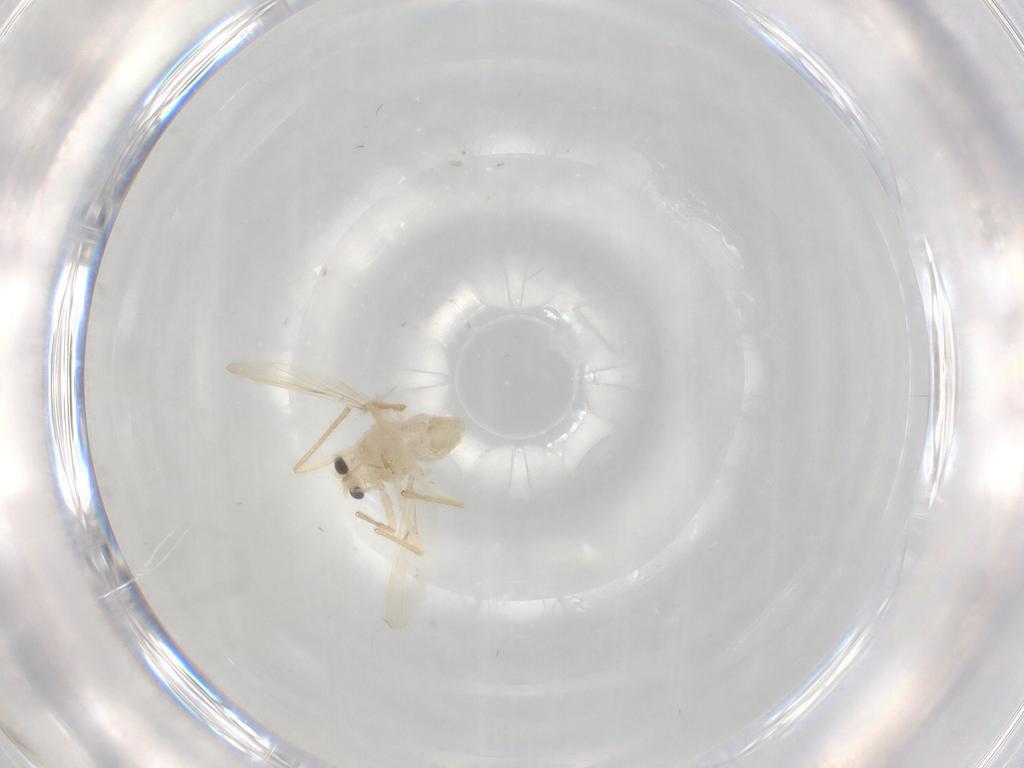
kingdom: Animalia
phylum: Arthropoda
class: Insecta
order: Diptera
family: Chironomidae
